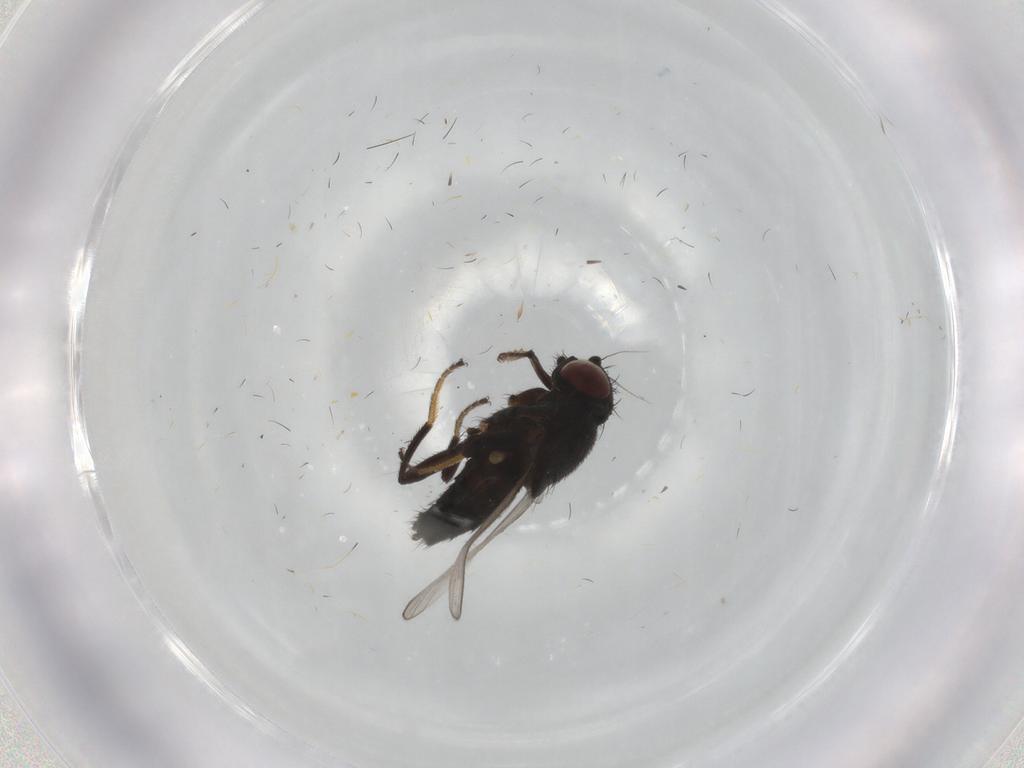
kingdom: Animalia
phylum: Arthropoda
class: Insecta
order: Diptera
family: Milichiidae
